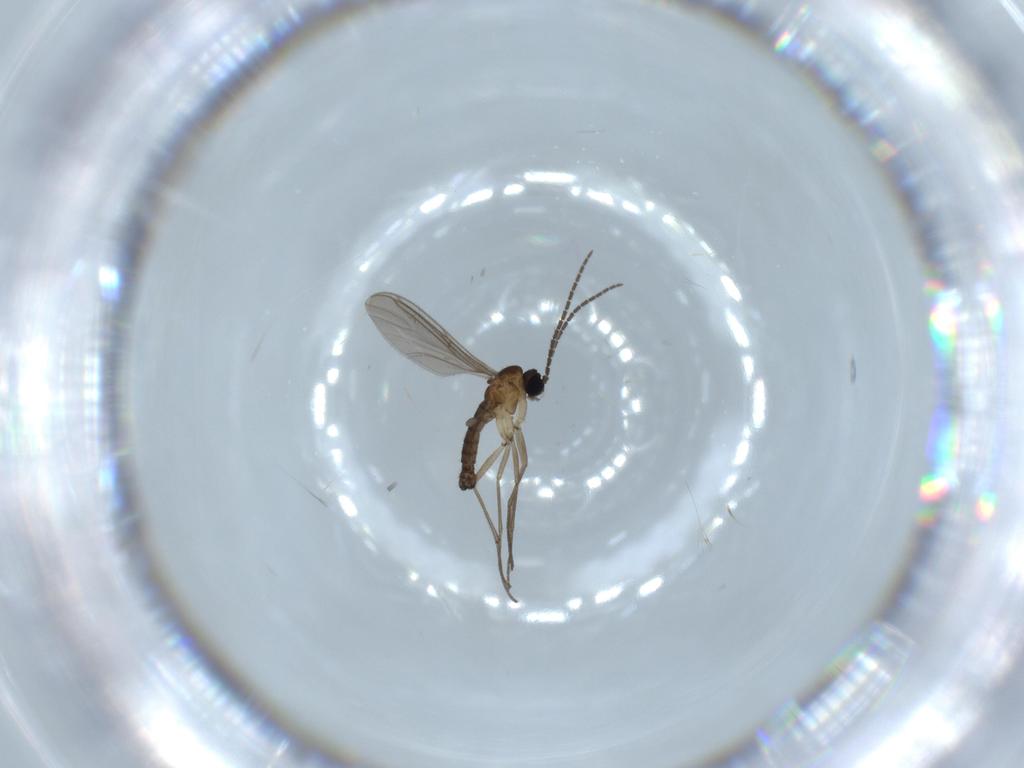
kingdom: Animalia
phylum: Arthropoda
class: Insecta
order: Diptera
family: Sciaridae
